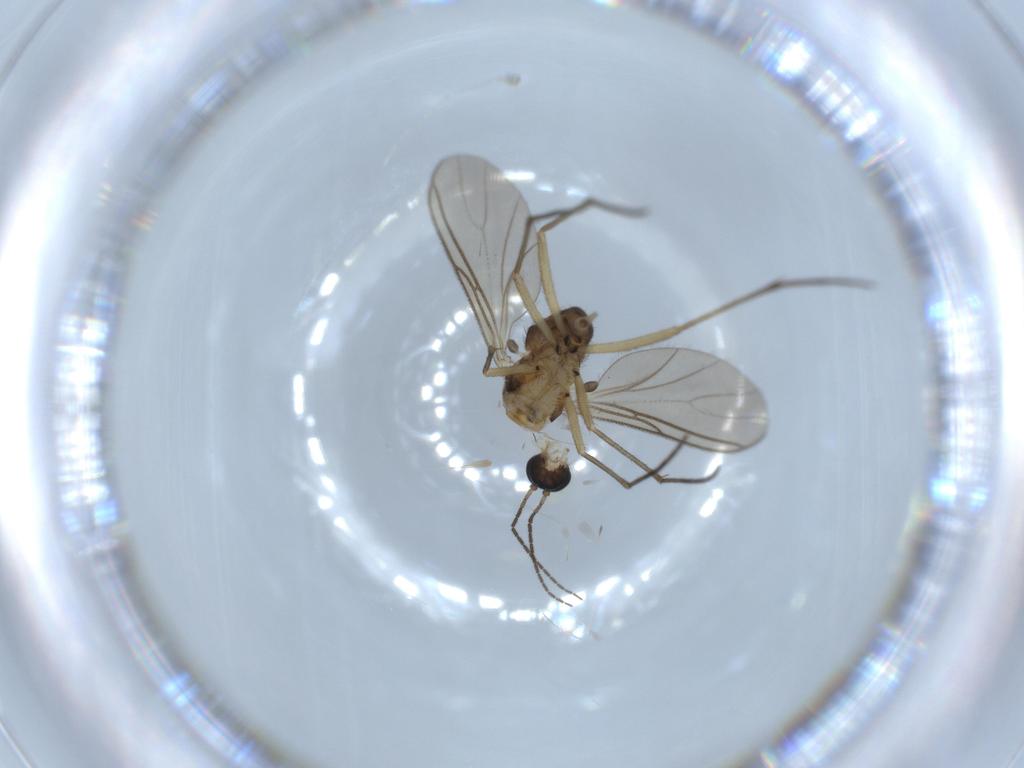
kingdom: Animalia
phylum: Arthropoda
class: Insecta
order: Diptera
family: Sciaridae
